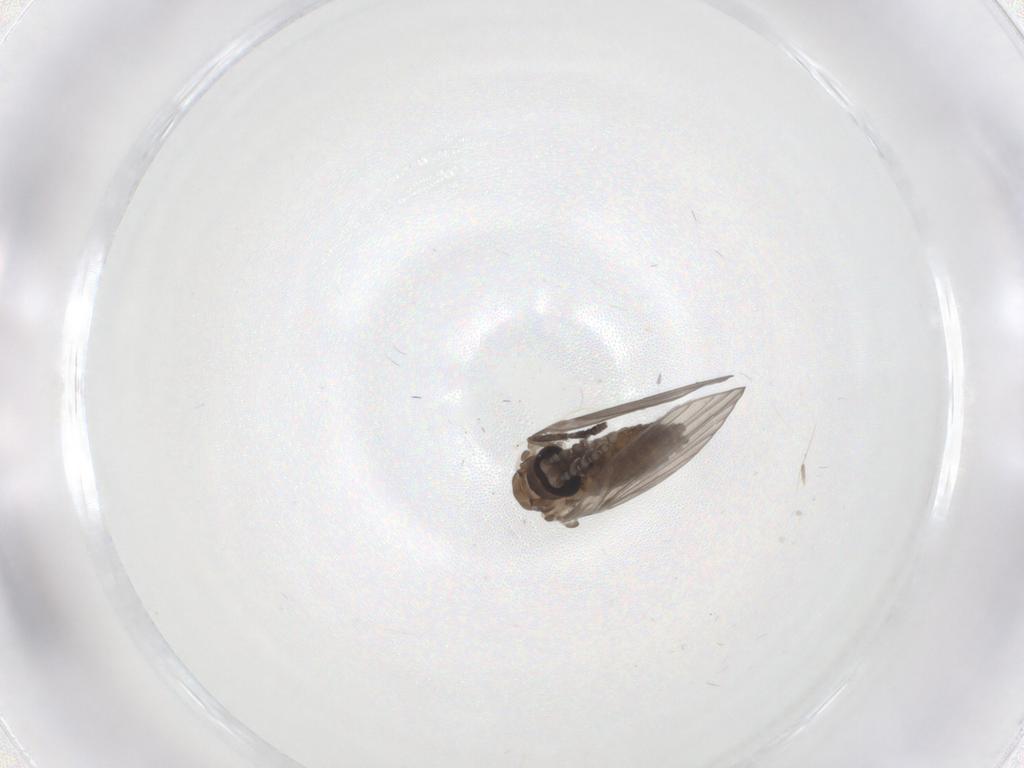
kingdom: Animalia
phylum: Arthropoda
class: Insecta
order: Diptera
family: Psychodidae
